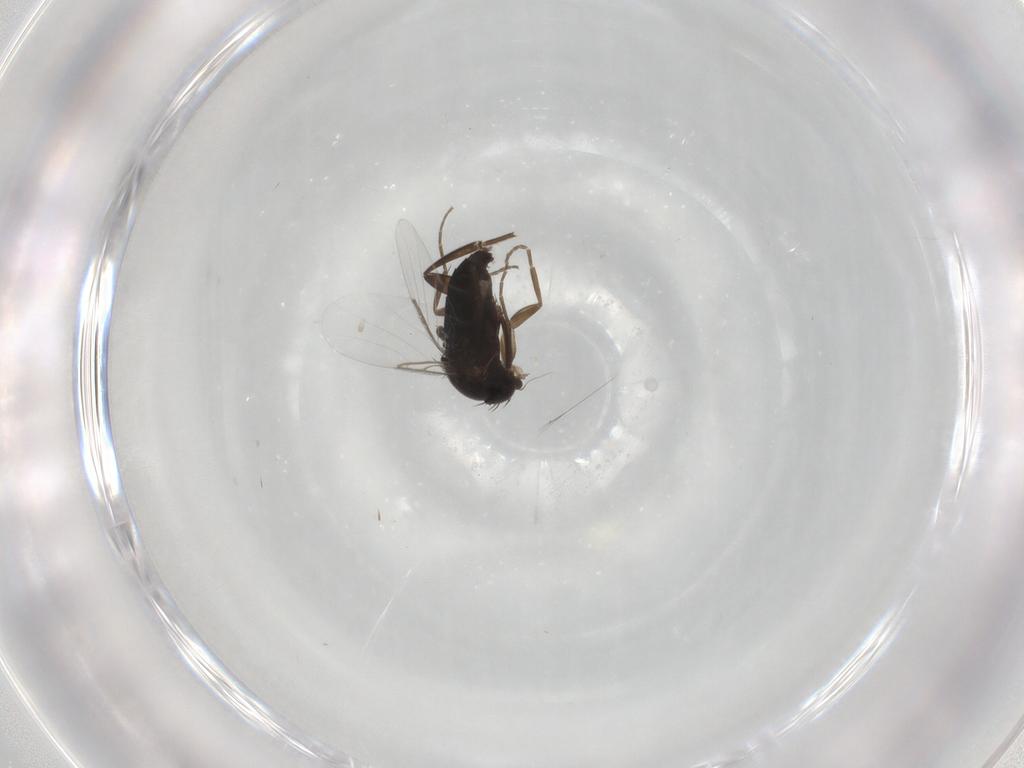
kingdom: Animalia
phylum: Arthropoda
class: Insecta
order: Diptera
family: Phoridae
